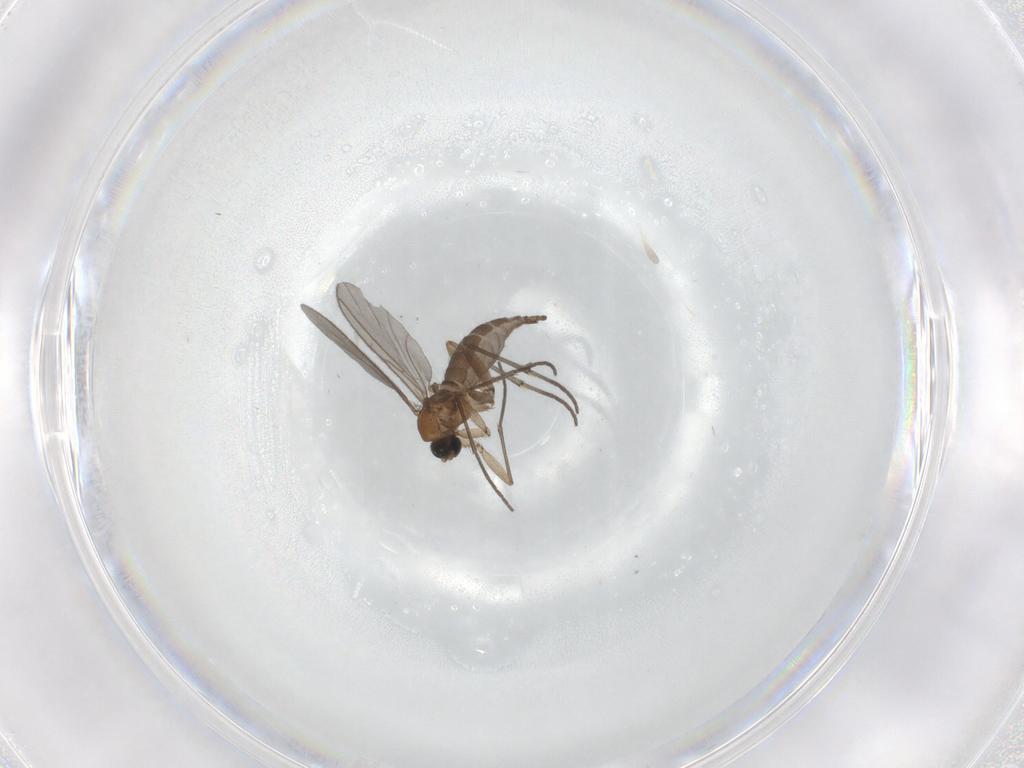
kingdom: Animalia
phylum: Arthropoda
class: Insecta
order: Diptera
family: Sciaridae
